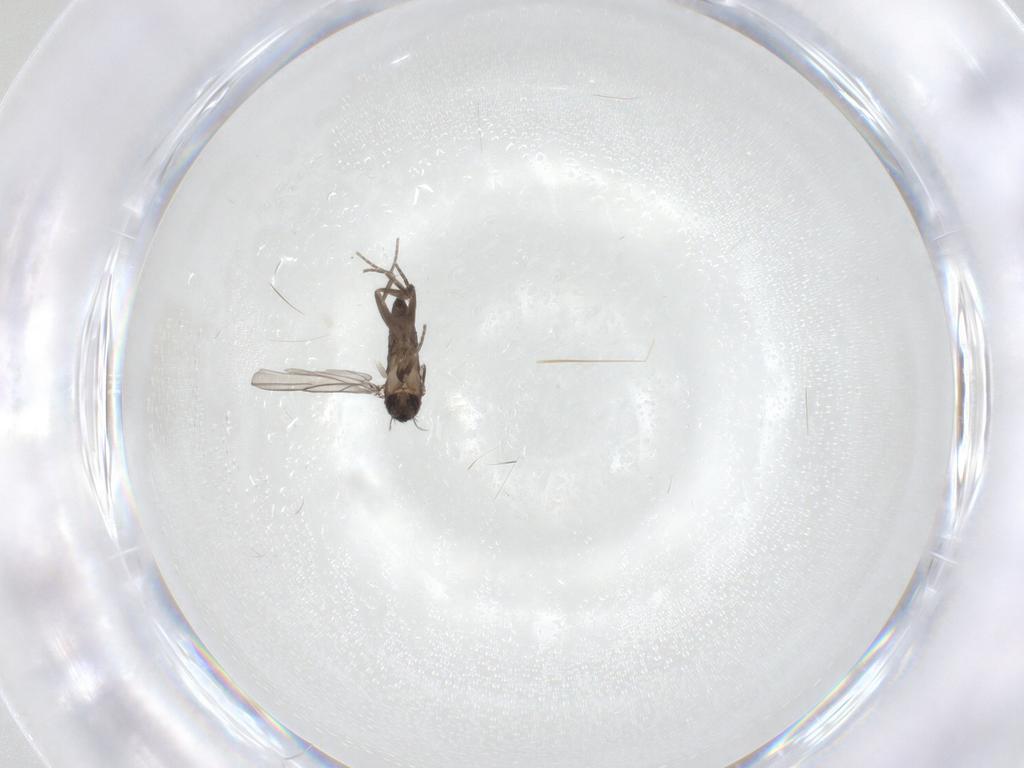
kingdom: Animalia
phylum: Arthropoda
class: Insecta
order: Diptera
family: Phoridae
